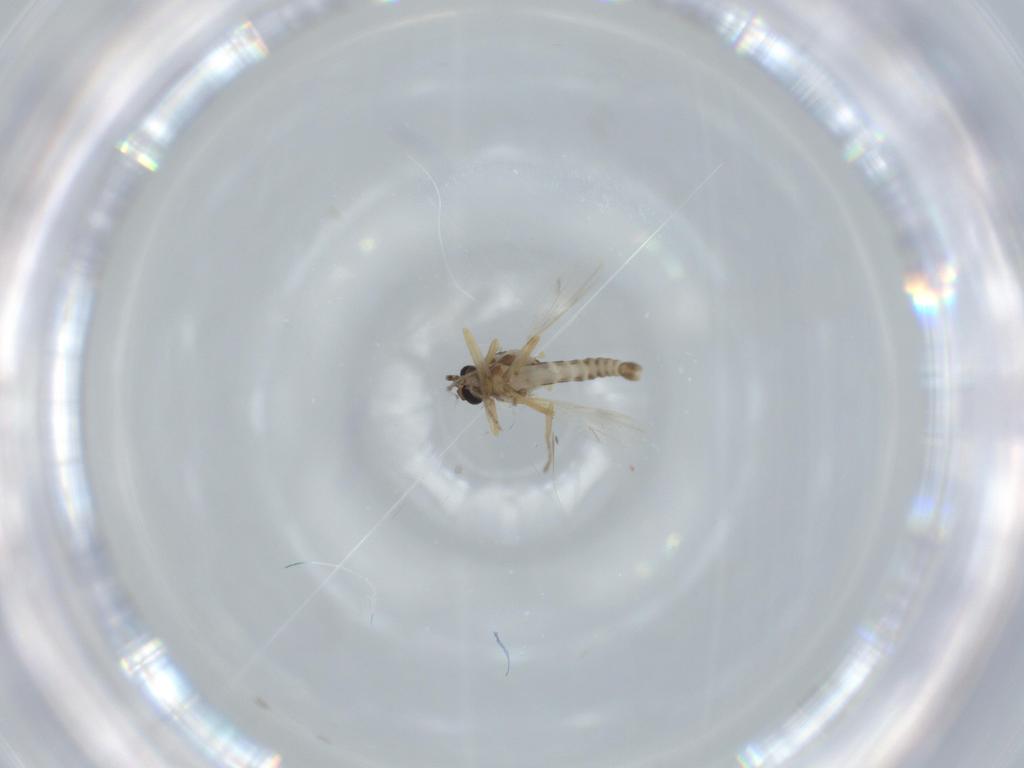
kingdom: Animalia
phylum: Arthropoda
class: Insecta
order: Diptera
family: Ceratopogonidae
